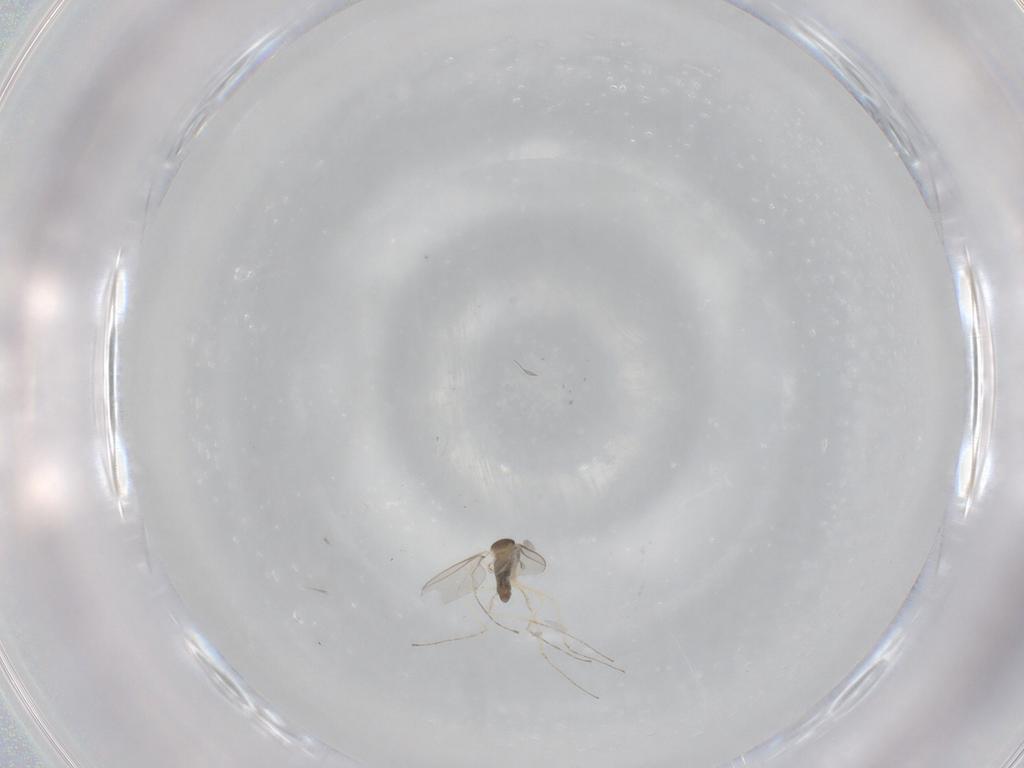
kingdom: Animalia
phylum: Arthropoda
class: Insecta
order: Diptera
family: Cecidomyiidae
